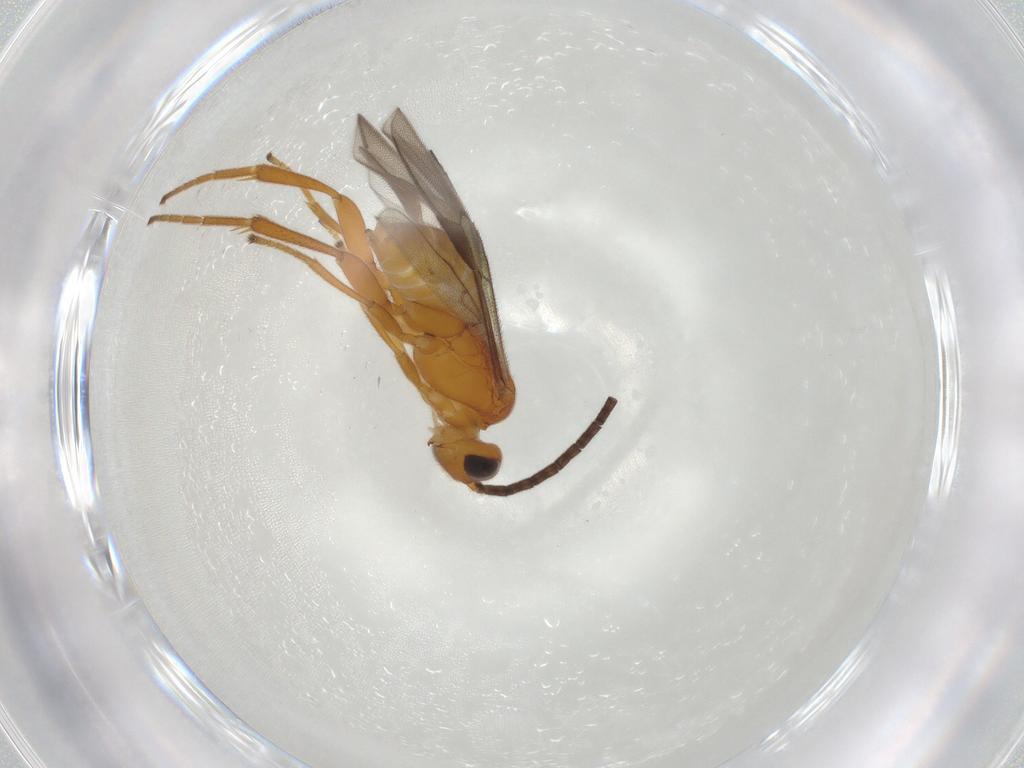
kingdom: Animalia
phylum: Arthropoda
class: Insecta
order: Hymenoptera
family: Braconidae
